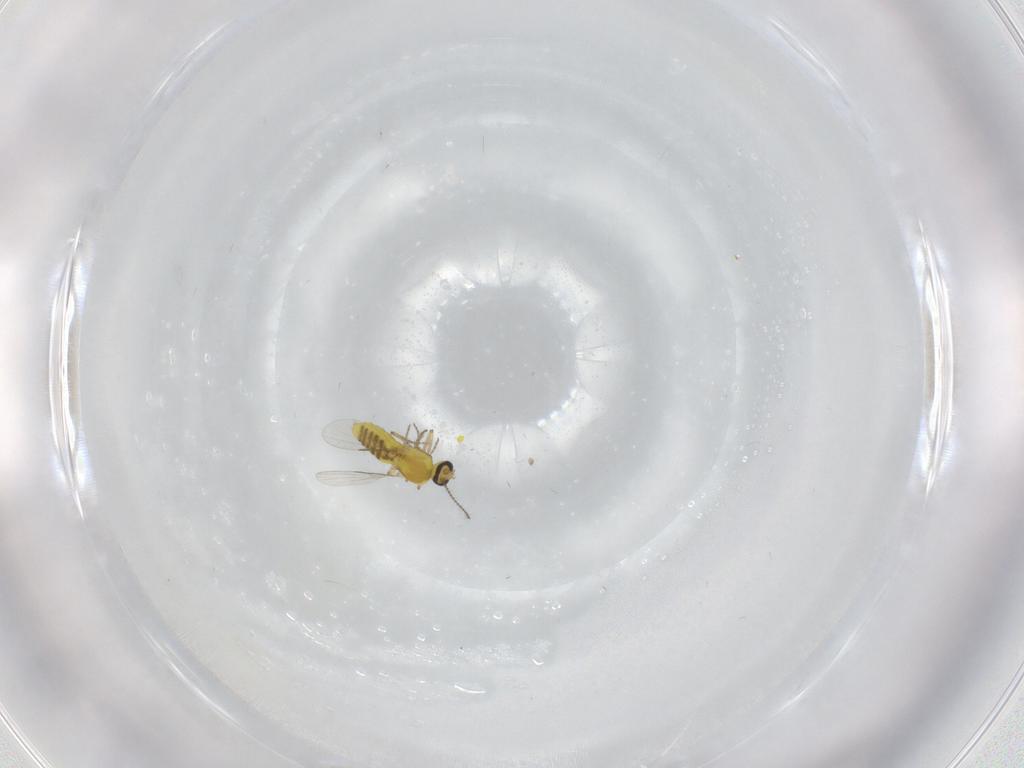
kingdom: Animalia
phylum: Arthropoda
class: Insecta
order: Diptera
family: Ceratopogonidae
